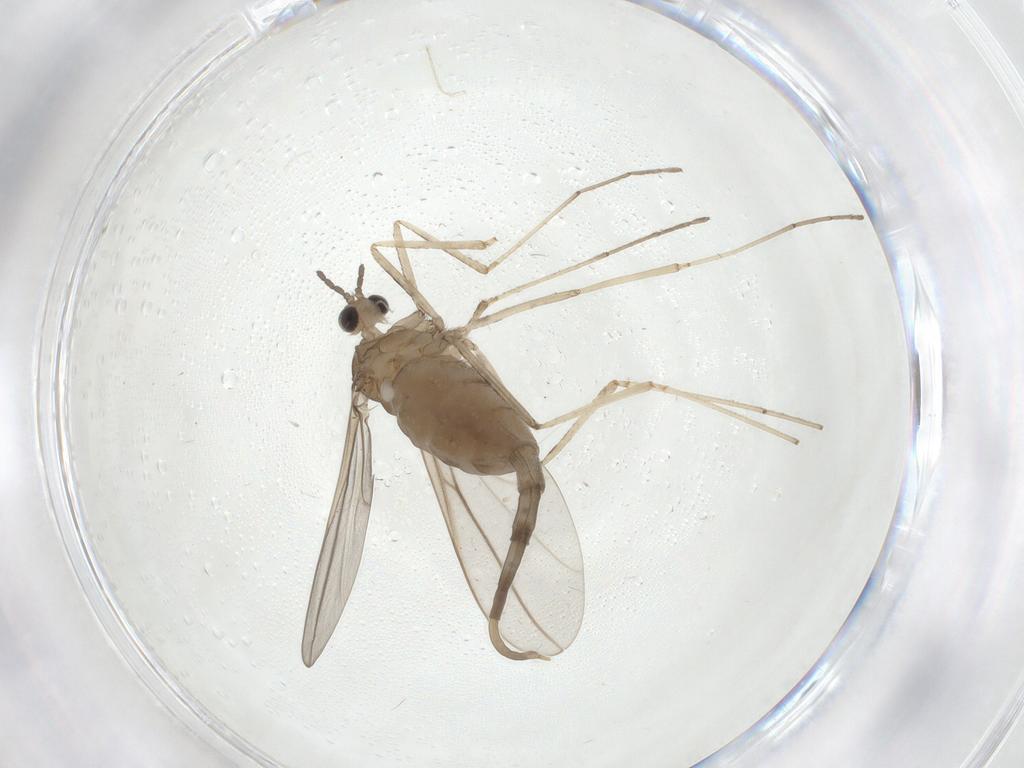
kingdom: Animalia
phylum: Arthropoda
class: Insecta
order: Diptera
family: Cecidomyiidae
